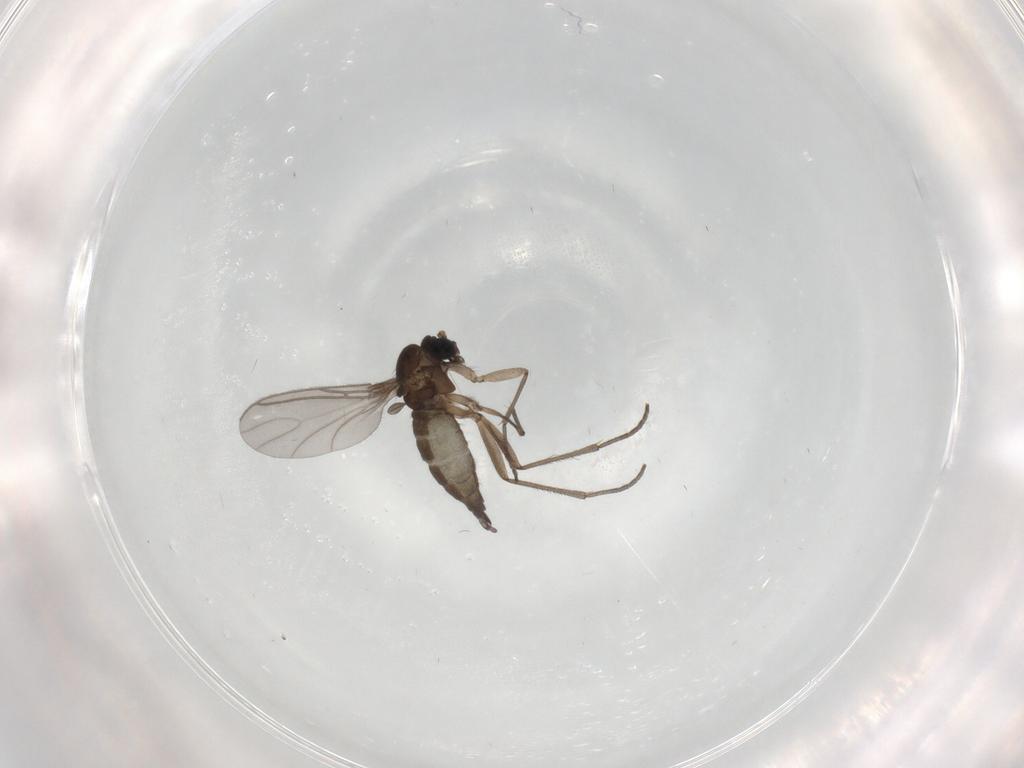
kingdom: Animalia
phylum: Arthropoda
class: Insecta
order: Diptera
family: Sciaridae
